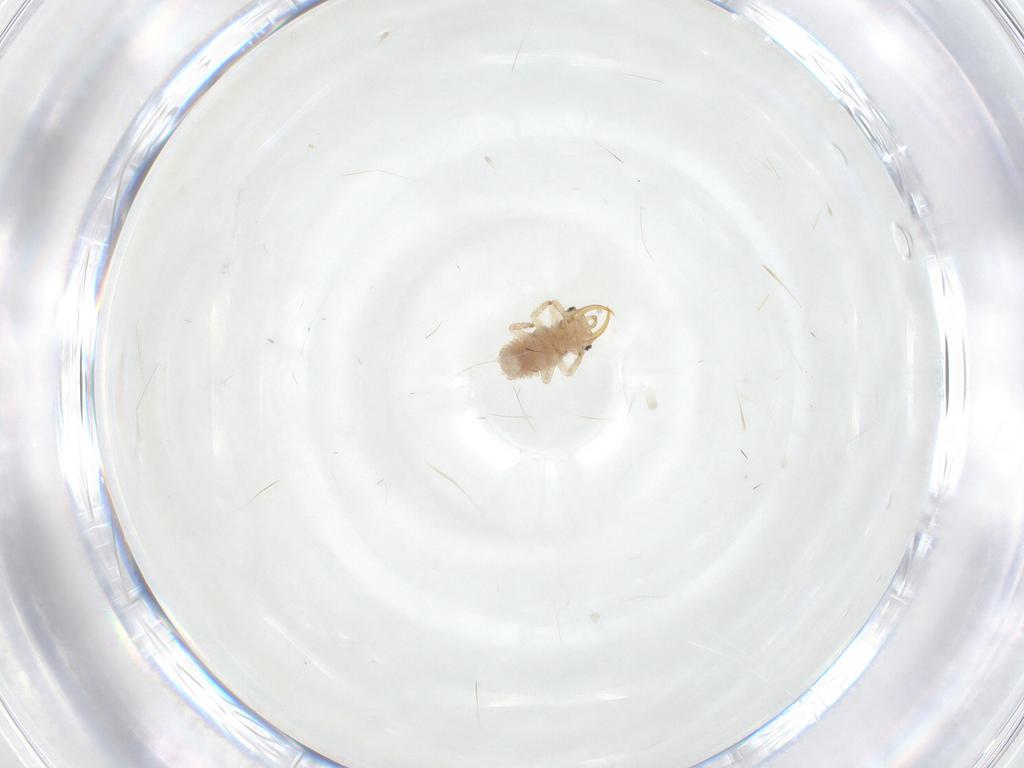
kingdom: Animalia
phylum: Arthropoda
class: Insecta
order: Neuroptera
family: Chrysopidae
